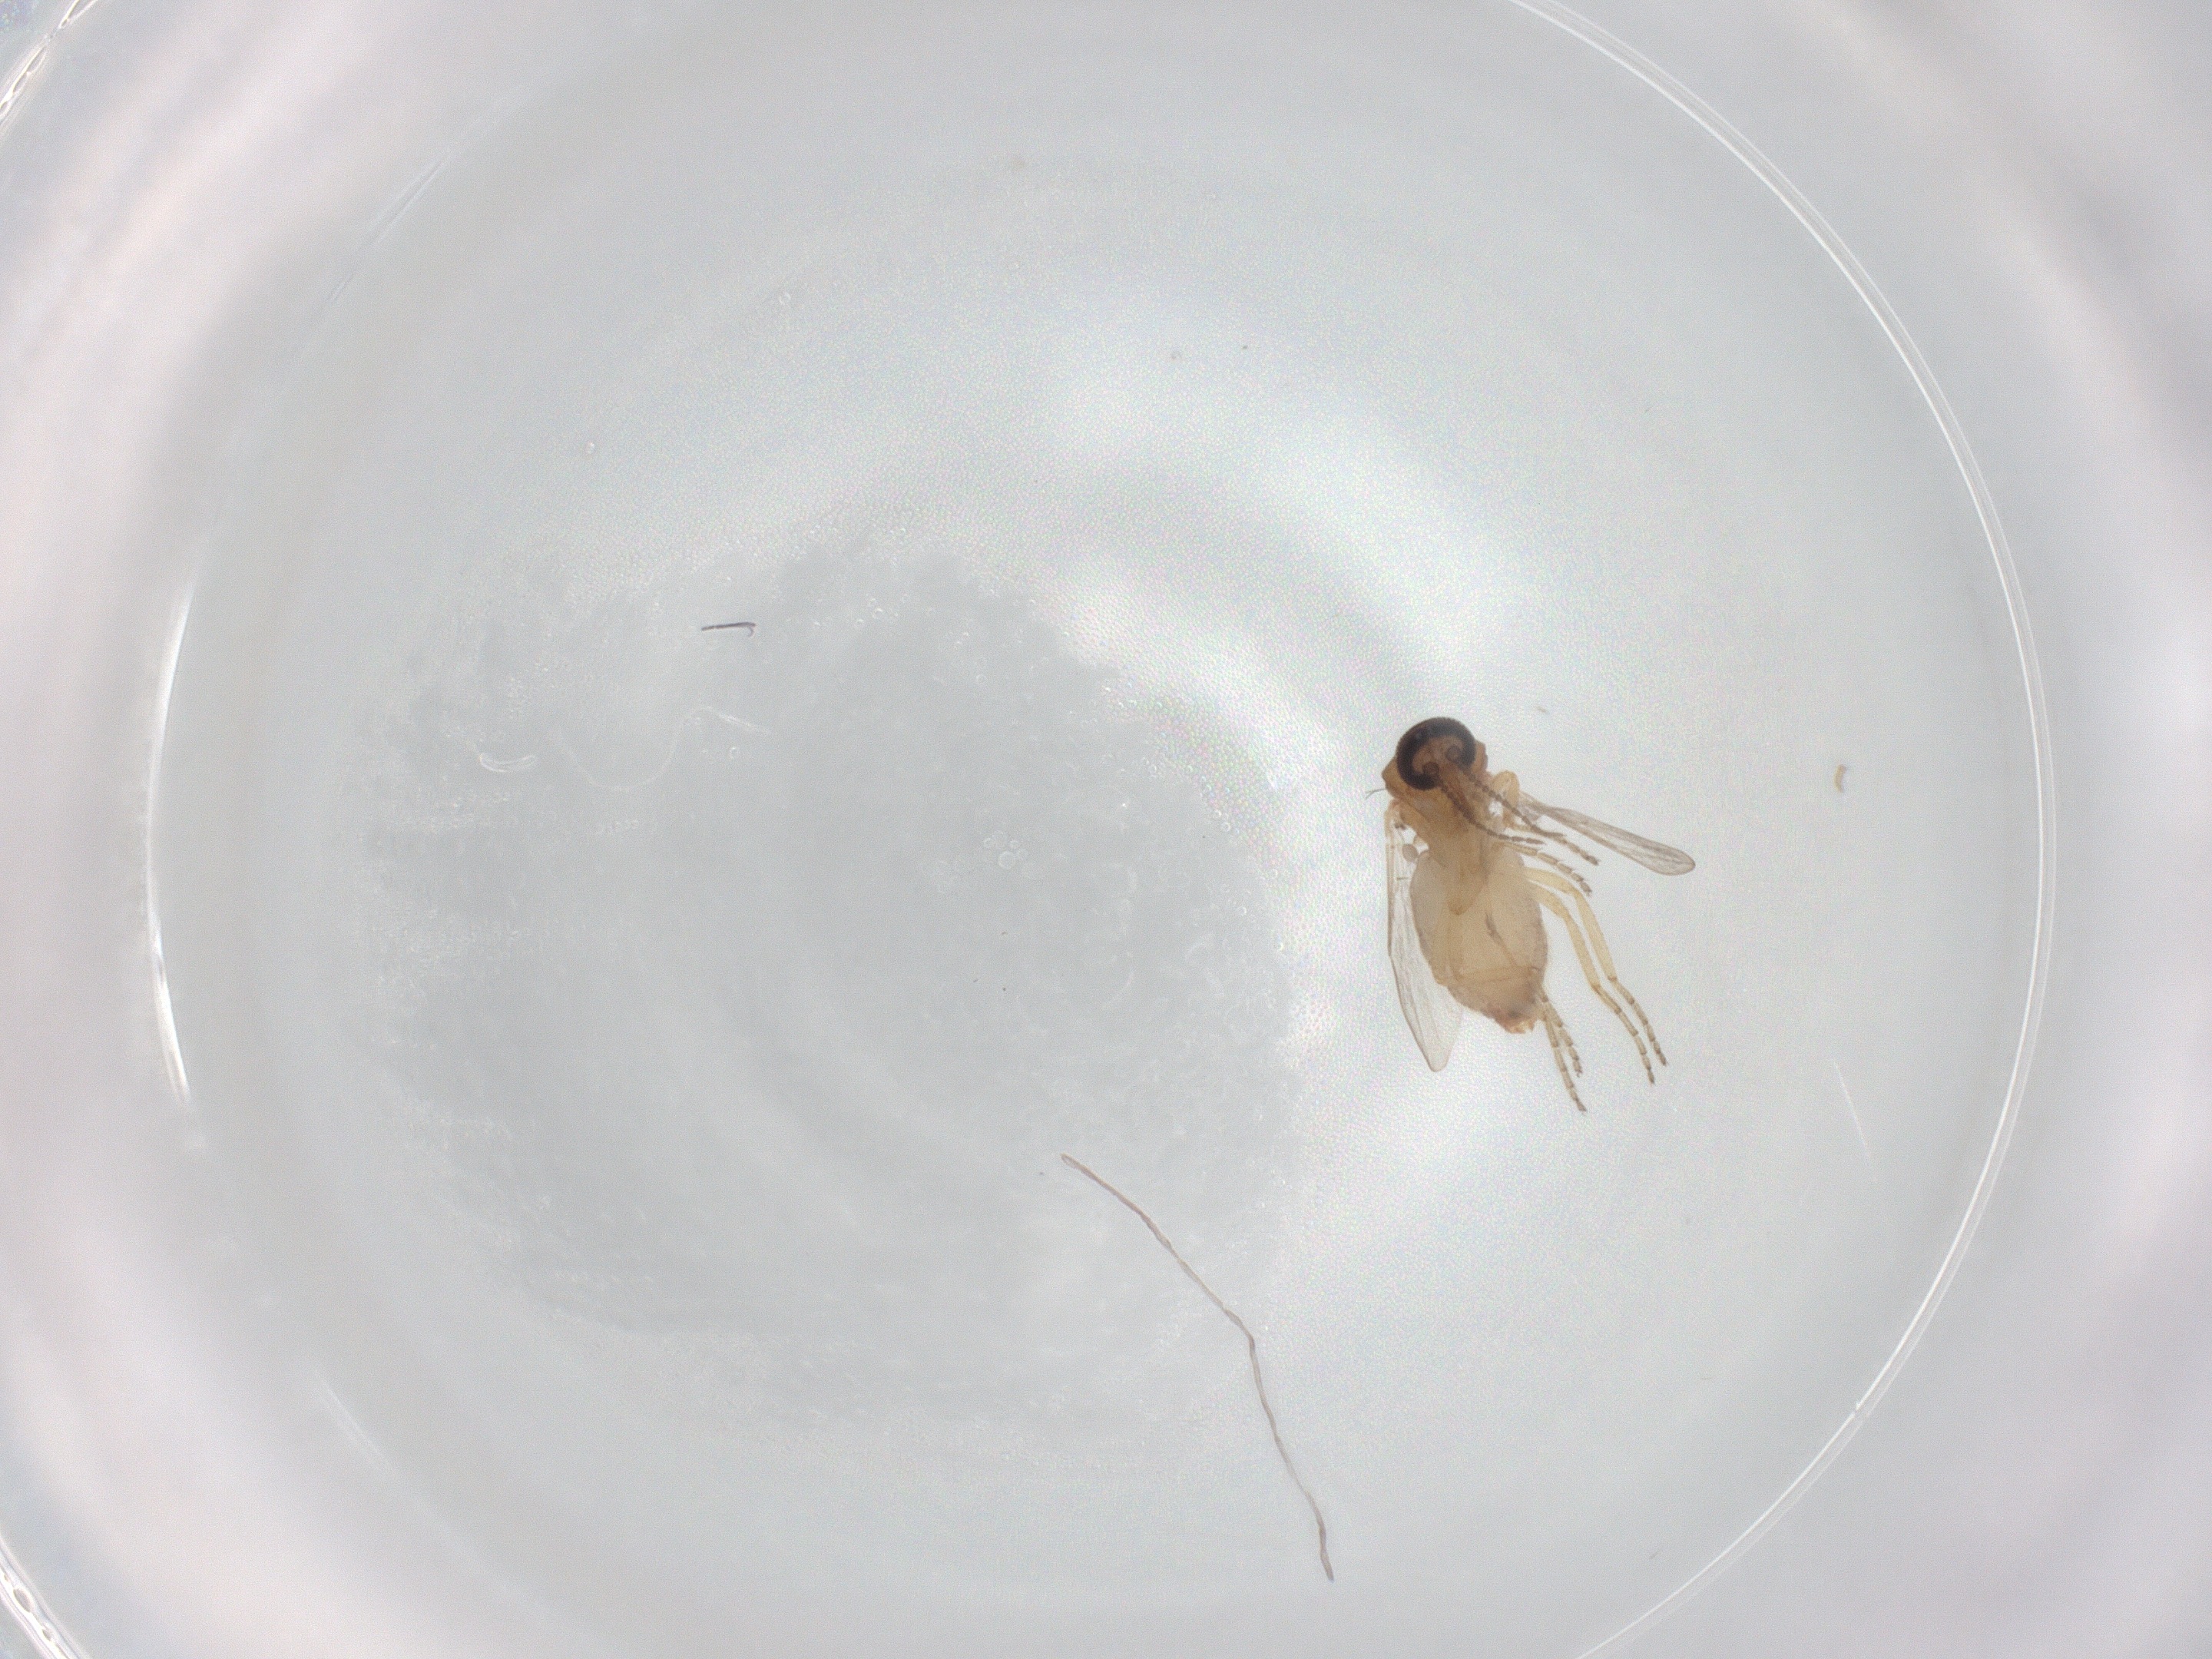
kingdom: Animalia
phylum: Arthropoda
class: Insecta
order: Diptera
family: Ceratopogonidae
